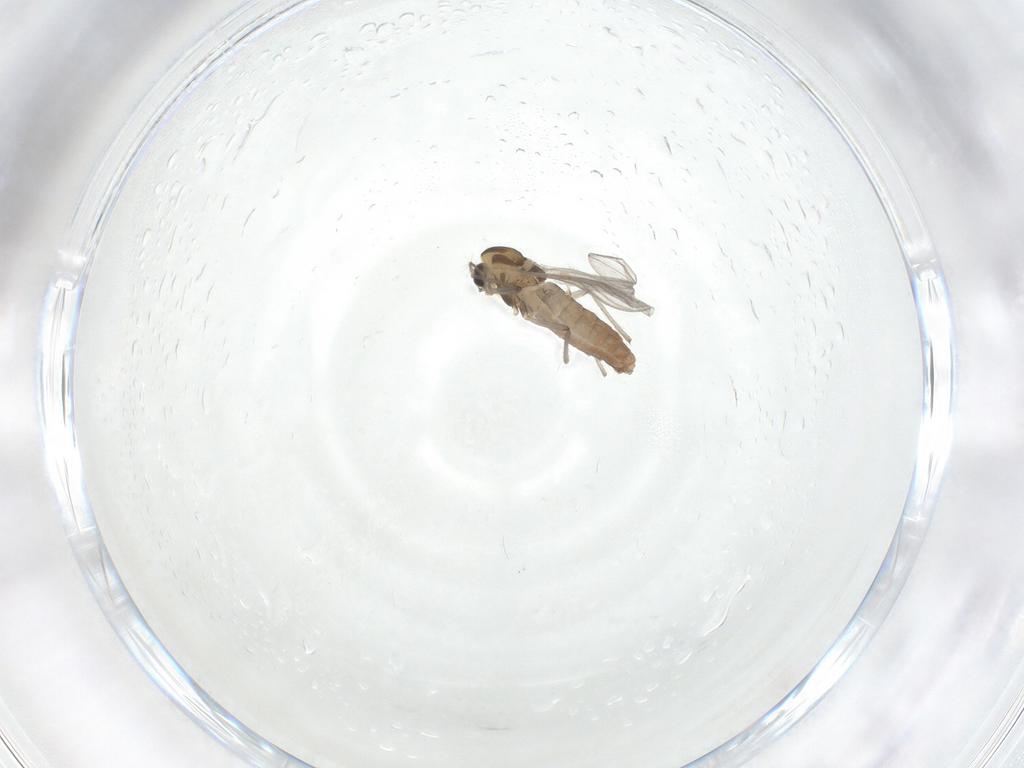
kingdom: Animalia
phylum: Arthropoda
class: Insecta
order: Diptera
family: Chironomidae
